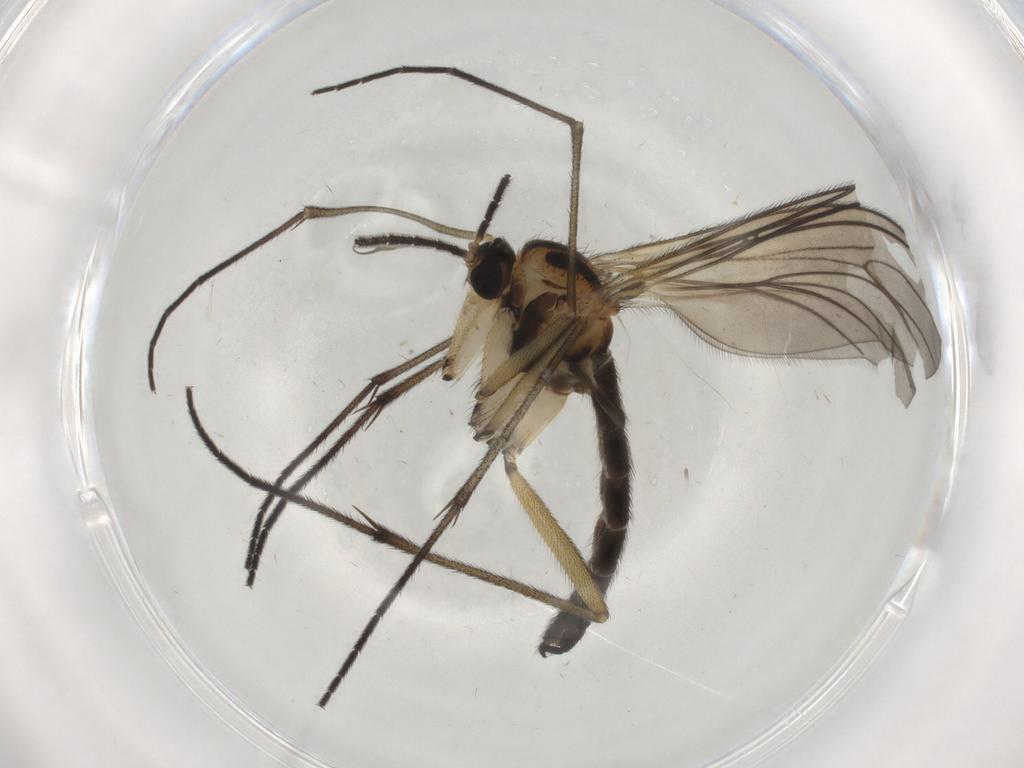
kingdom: Animalia
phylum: Arthropoda
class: Insecta
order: Diptera
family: Sciaridae
